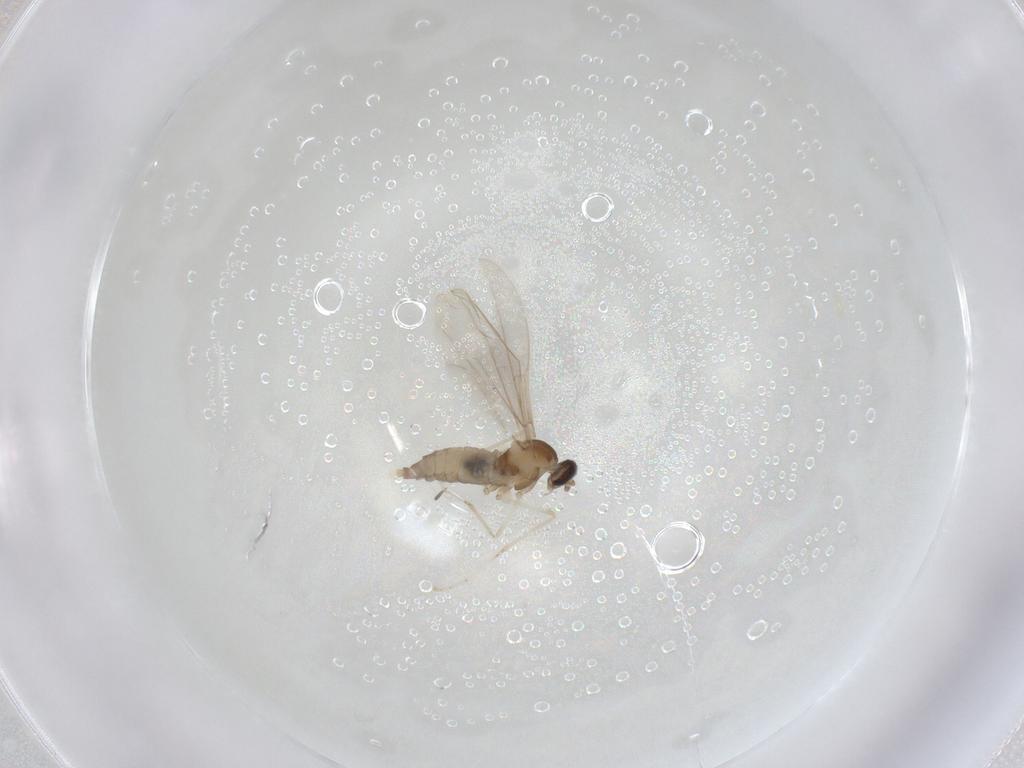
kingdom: Animalia
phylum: Arthropoda
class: Insecta
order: Diptera
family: Cecidomyiidae
